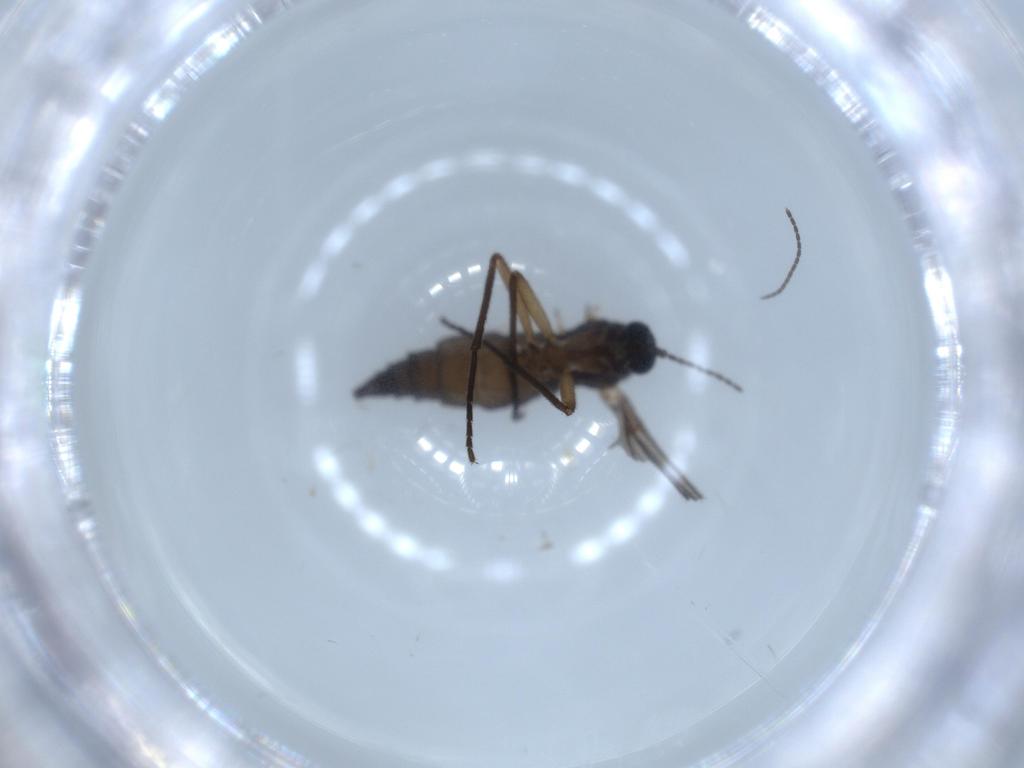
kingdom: Animalia
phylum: Arthropoda
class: Insecta
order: Diptera
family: Sciaridae
